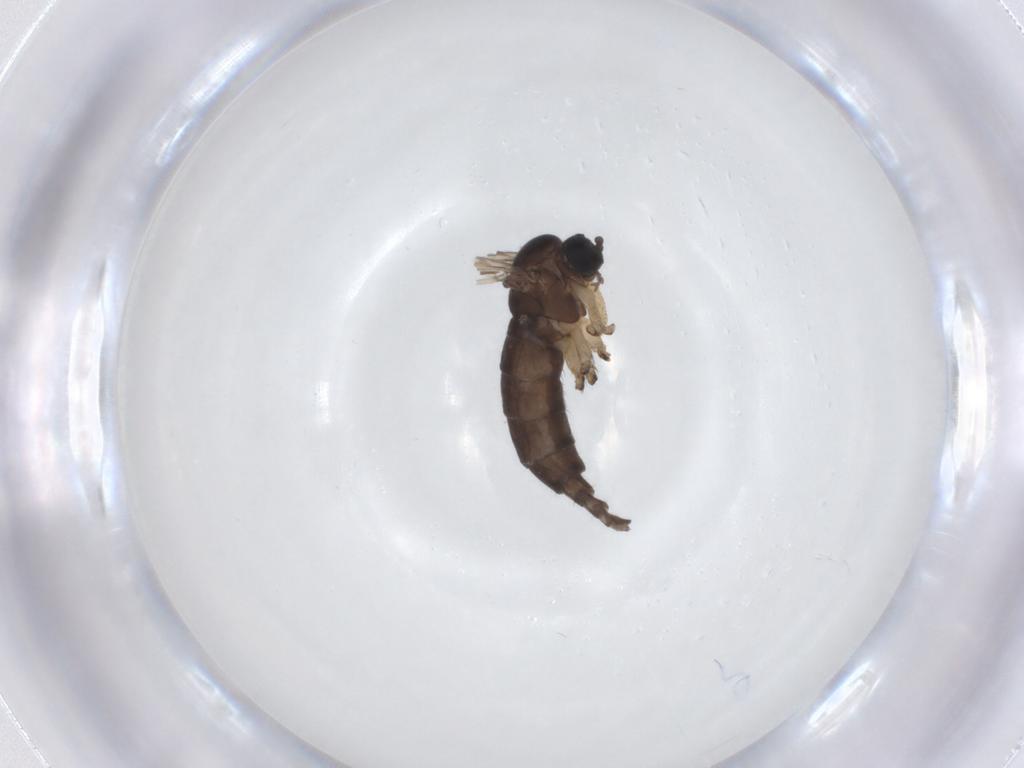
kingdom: Animalia
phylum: Arthropoda
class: Insecta
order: Diptera
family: Sciaridae
